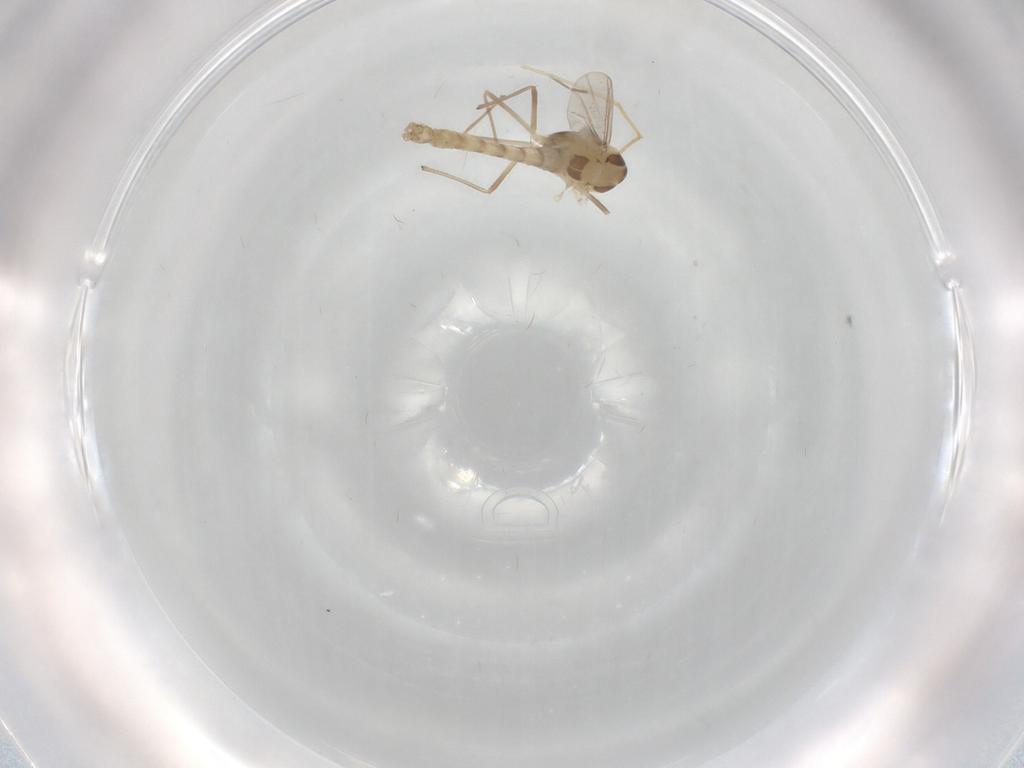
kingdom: Animalia
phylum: Arthropoda
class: Insecta
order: Diptera
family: Chironomidae
